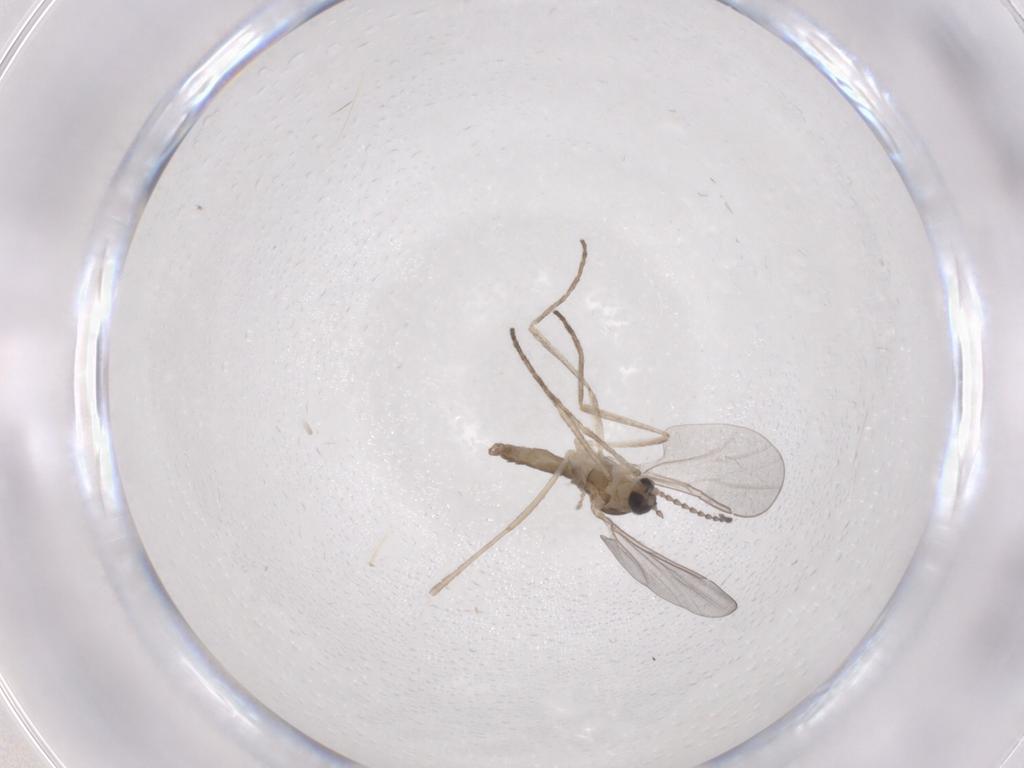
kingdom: Animalia
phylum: Arthropoda
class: Insecta
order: Diptera
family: Cecidomyiidae
